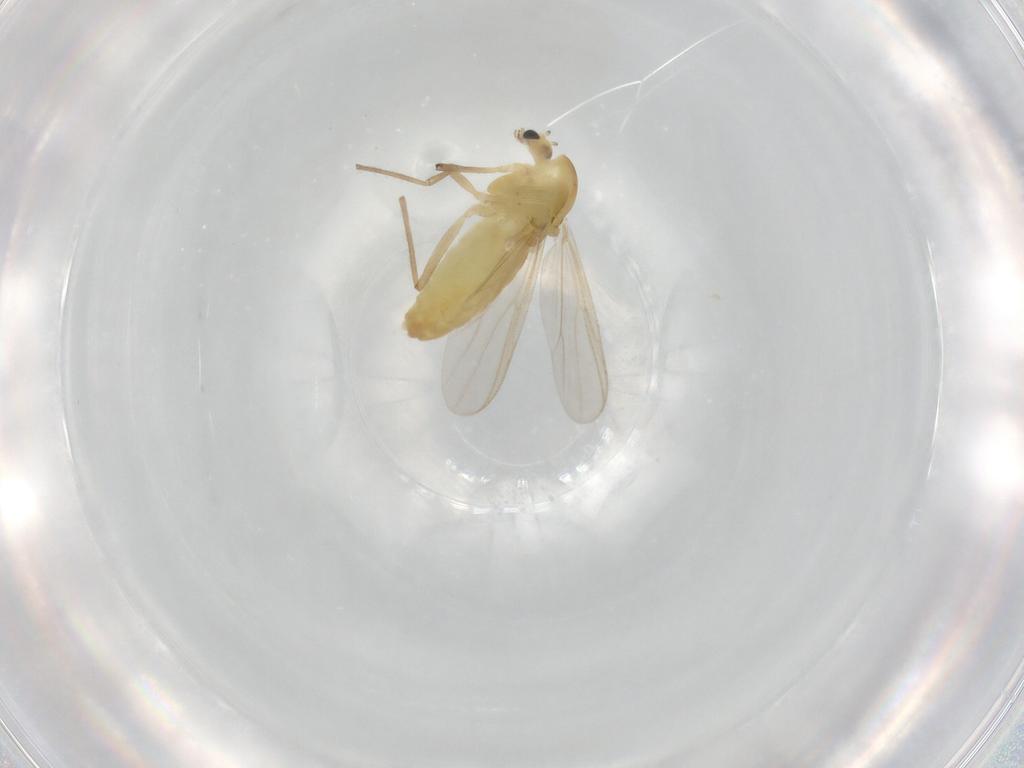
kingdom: Animalia
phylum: Arthropoda
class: Insecta
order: Diptera
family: Chironomidae
